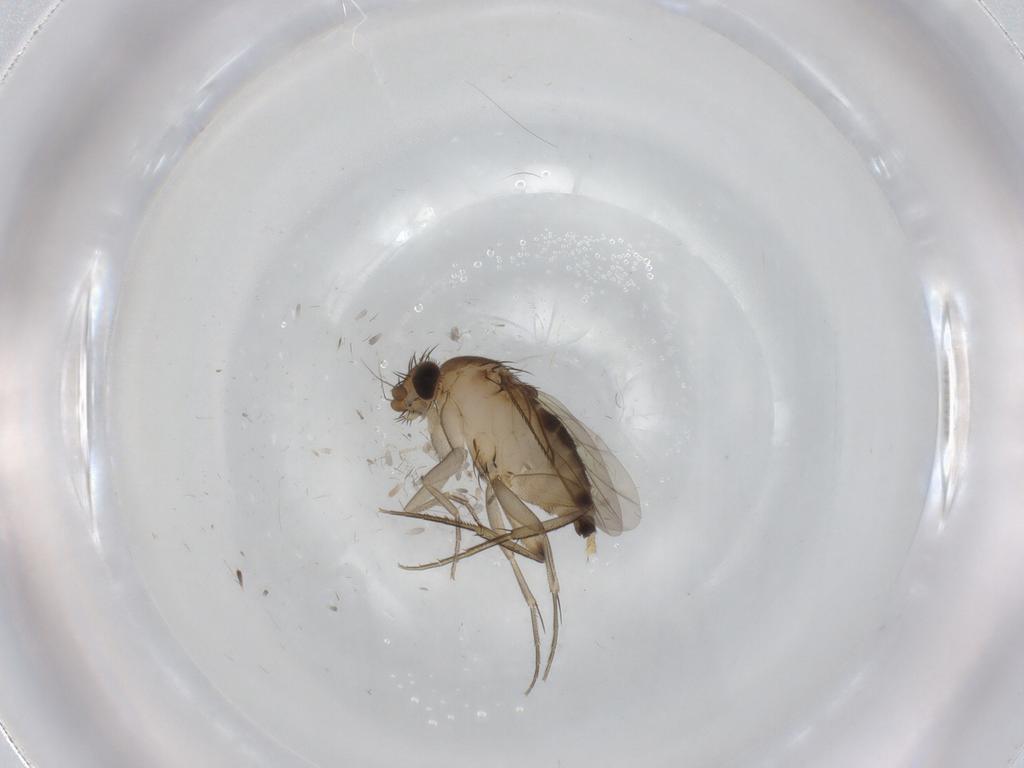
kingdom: Animalia
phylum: Arthropoda
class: Insecta
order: Diptera
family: Phoridae
